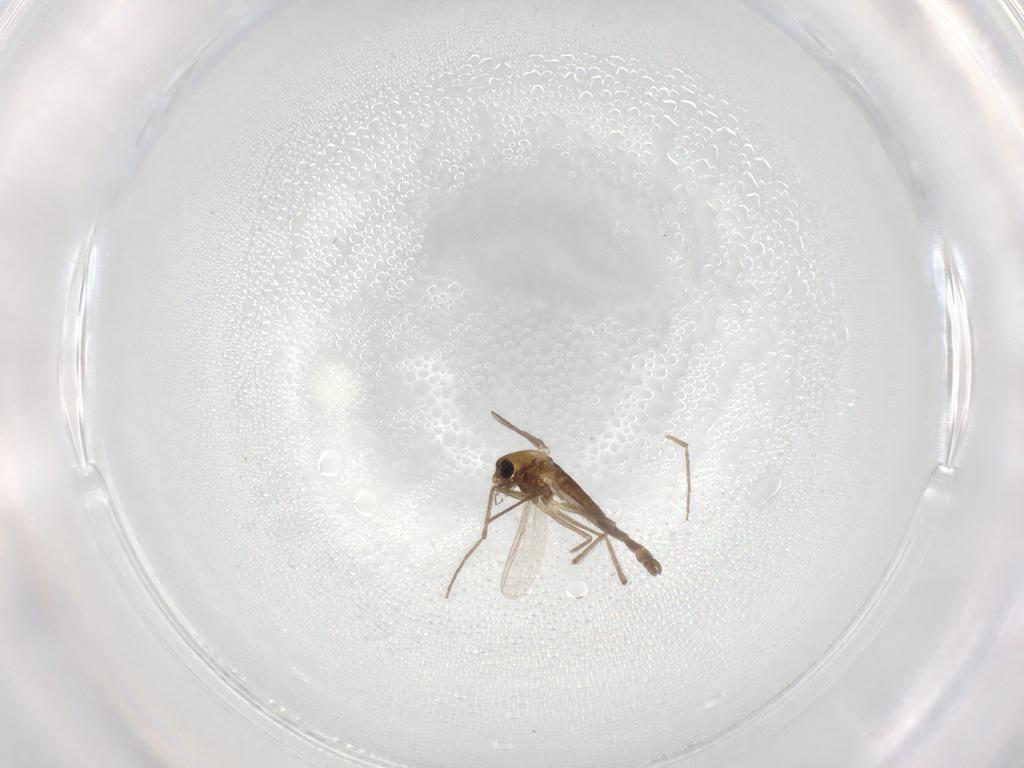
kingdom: Animalia
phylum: Arthropoda
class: Insecta
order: Diptera
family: Chironomidae
